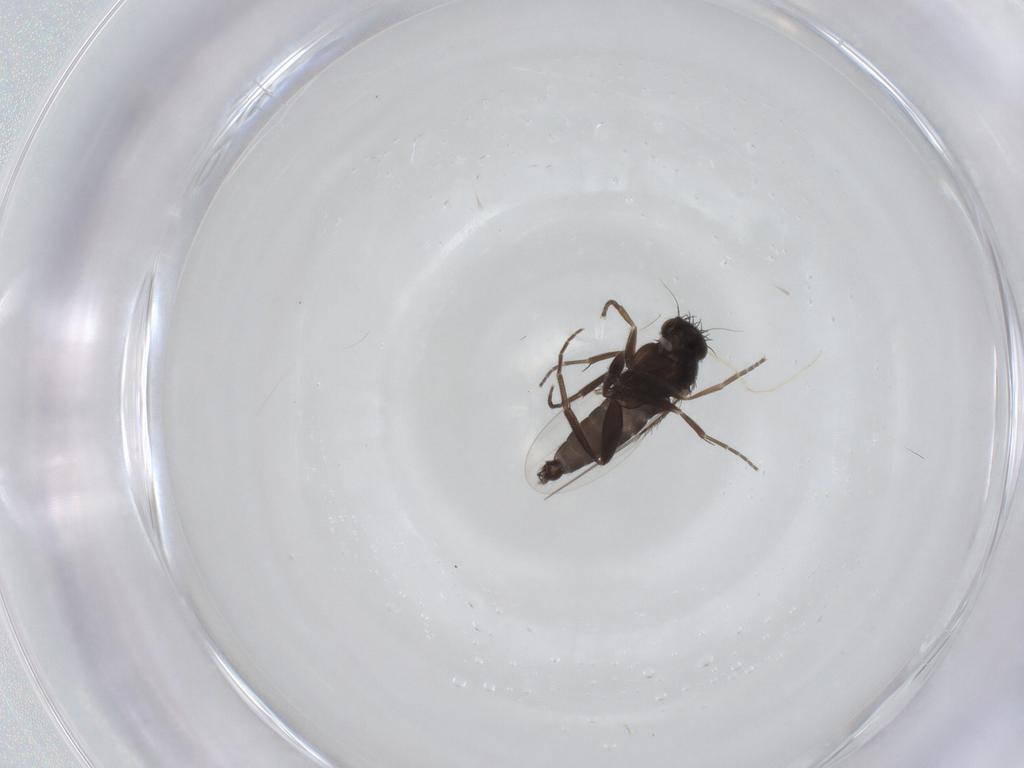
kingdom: Animalia
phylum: Arthropoda
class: Insecta
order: Diptera
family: Phoridae
